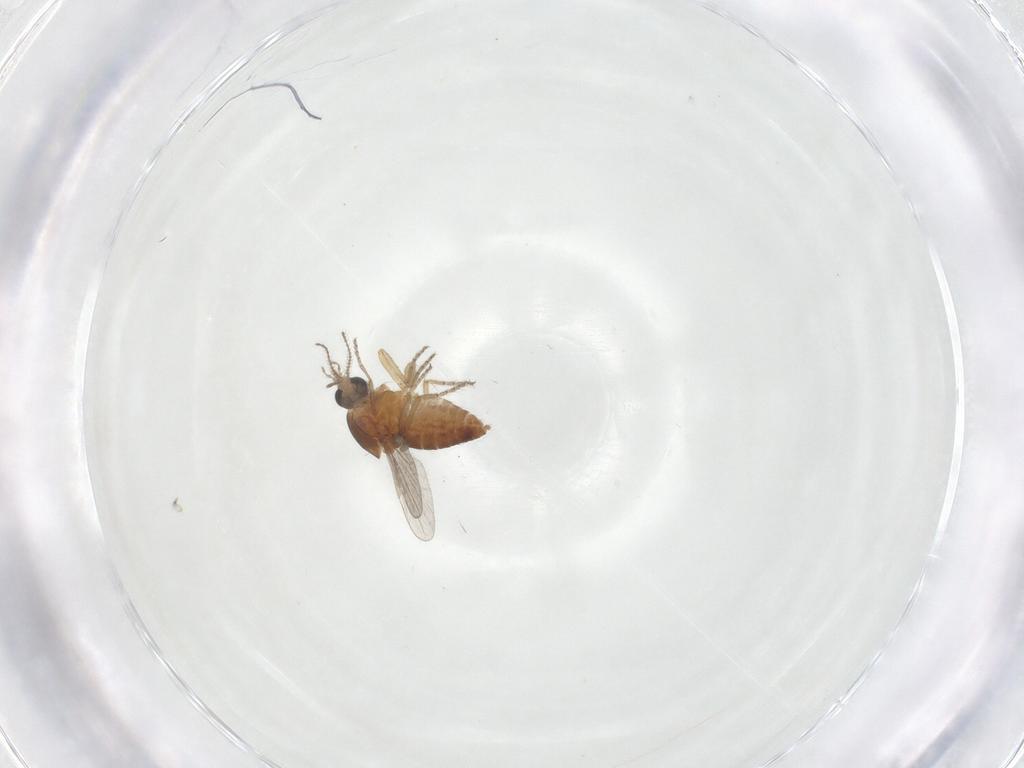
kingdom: Animalia
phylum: Arthropoda
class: Insecta
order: Diptera
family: Ceratopogonidae
